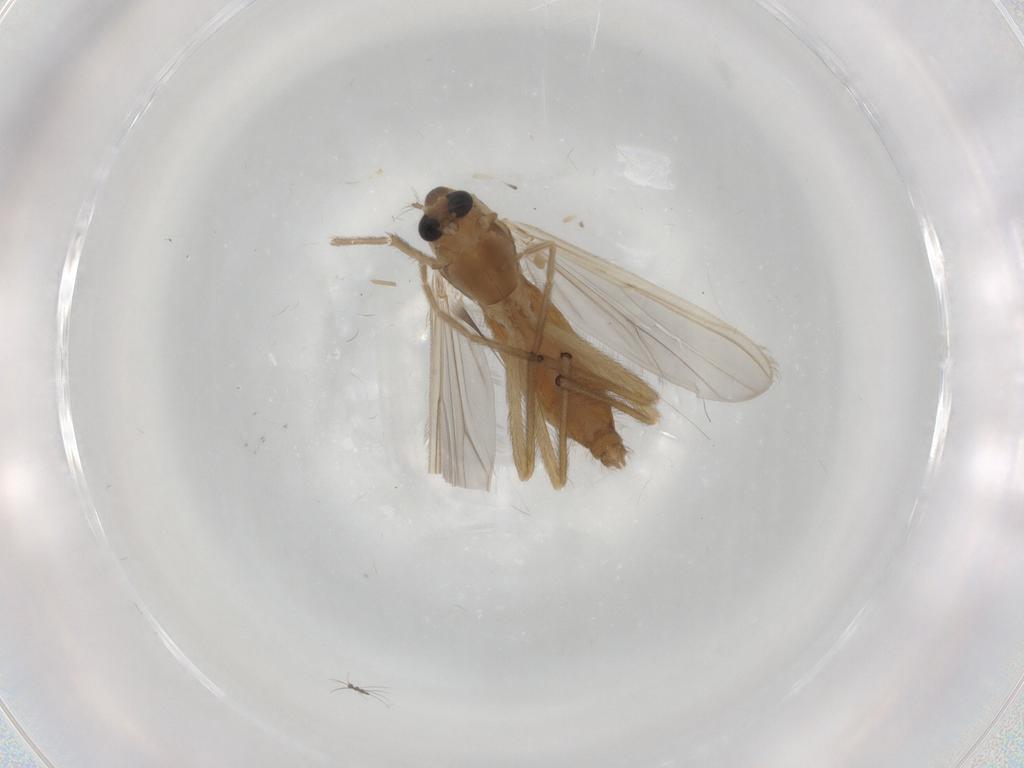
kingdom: Animalia
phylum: Arthropoda
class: Insecta
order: Diptera
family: Chironomidae
